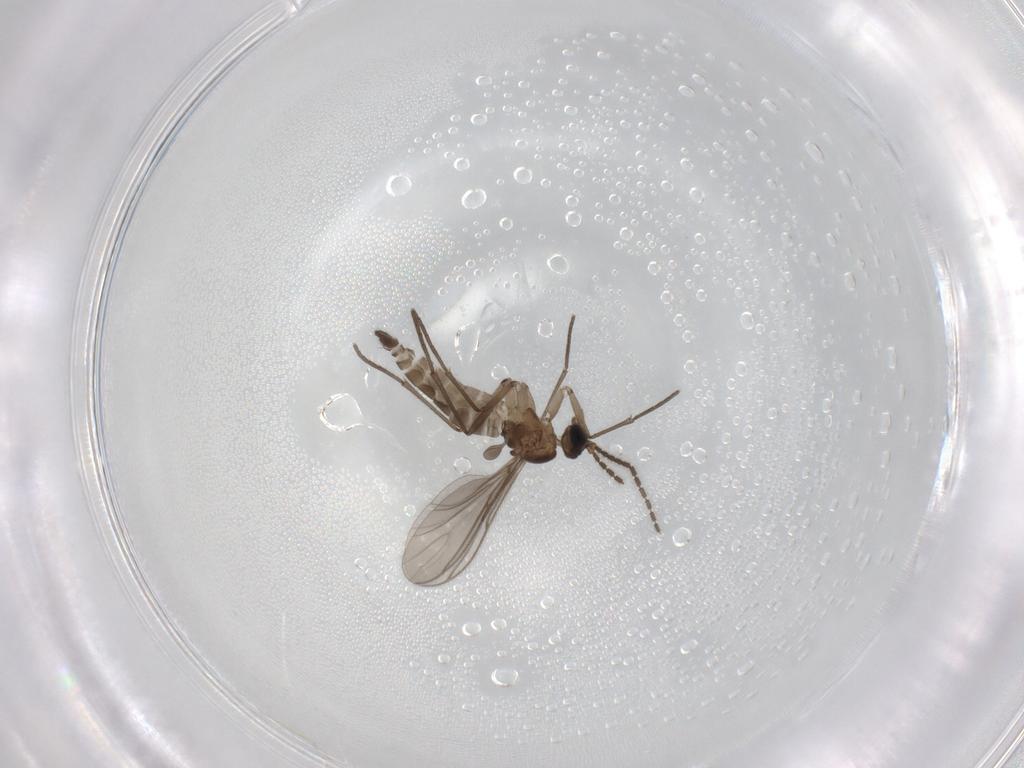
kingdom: Animalia
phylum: Arthropoda
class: Insecta
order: Diptera
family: Sciaridae
